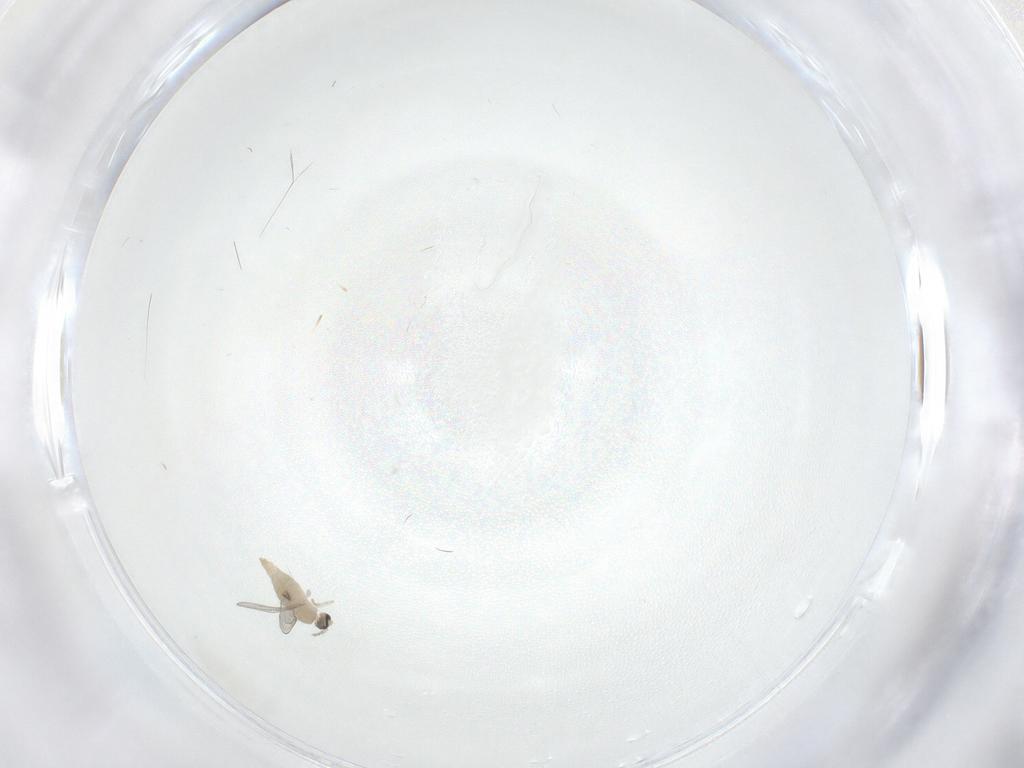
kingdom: Animalia
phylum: Arthropoda
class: Insecta
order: Diptera
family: Cecidomyiidae
